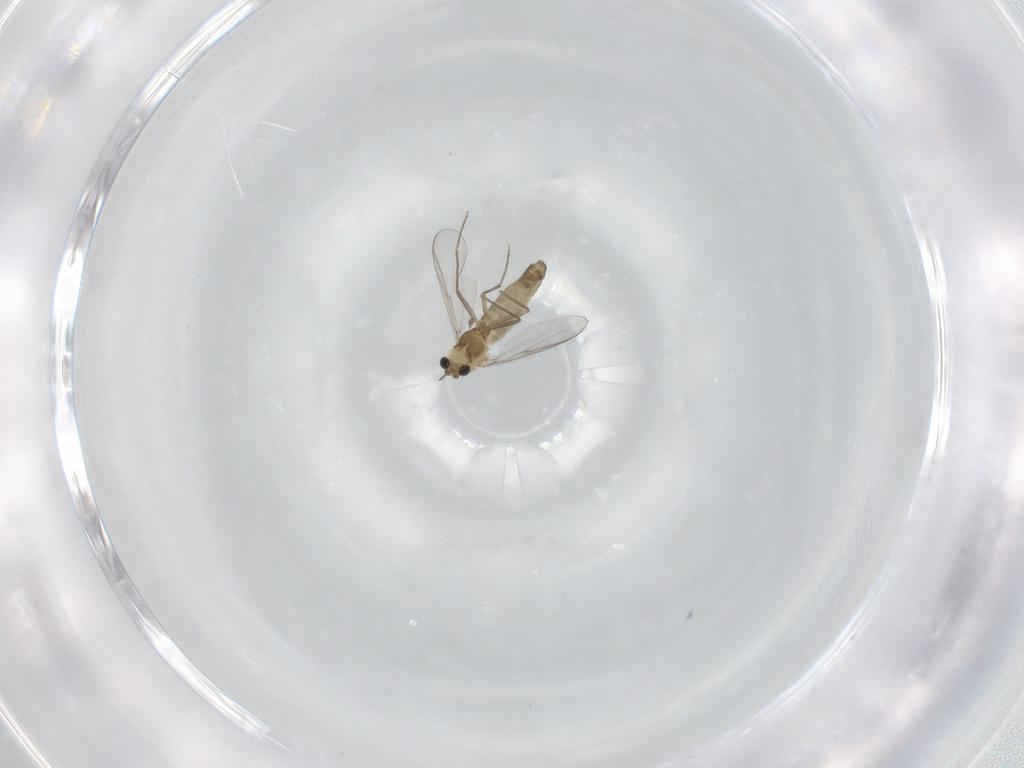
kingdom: Animalia
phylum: Arthropoda
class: Insecta
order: Diptera
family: Chironomidae
